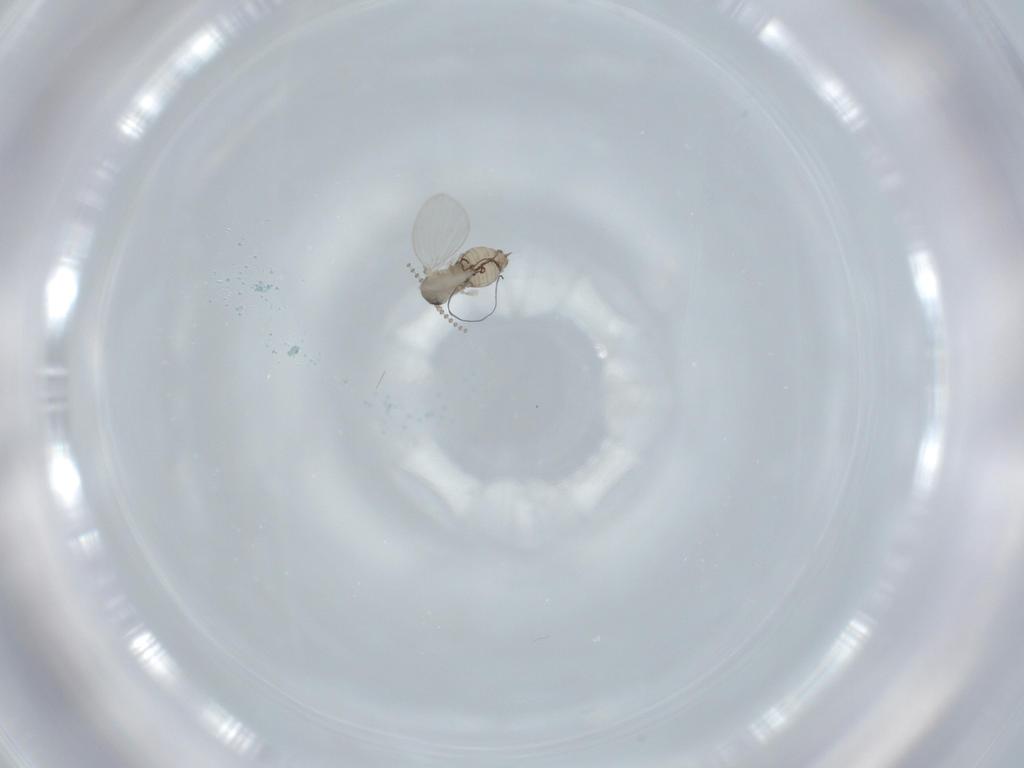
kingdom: Animalia
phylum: Arthropoda
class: Insecta
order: Diptera
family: Psychodidae
